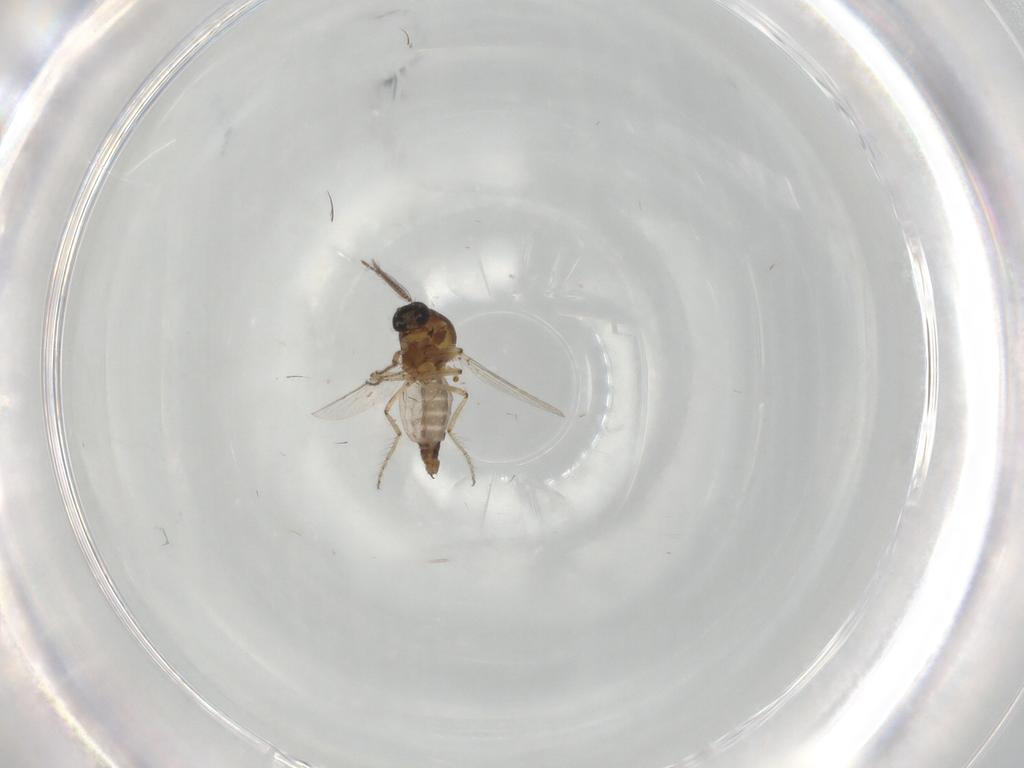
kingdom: Animalia
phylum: Arthropoda
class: Insecta
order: Diptera
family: Ceratopogonidae
